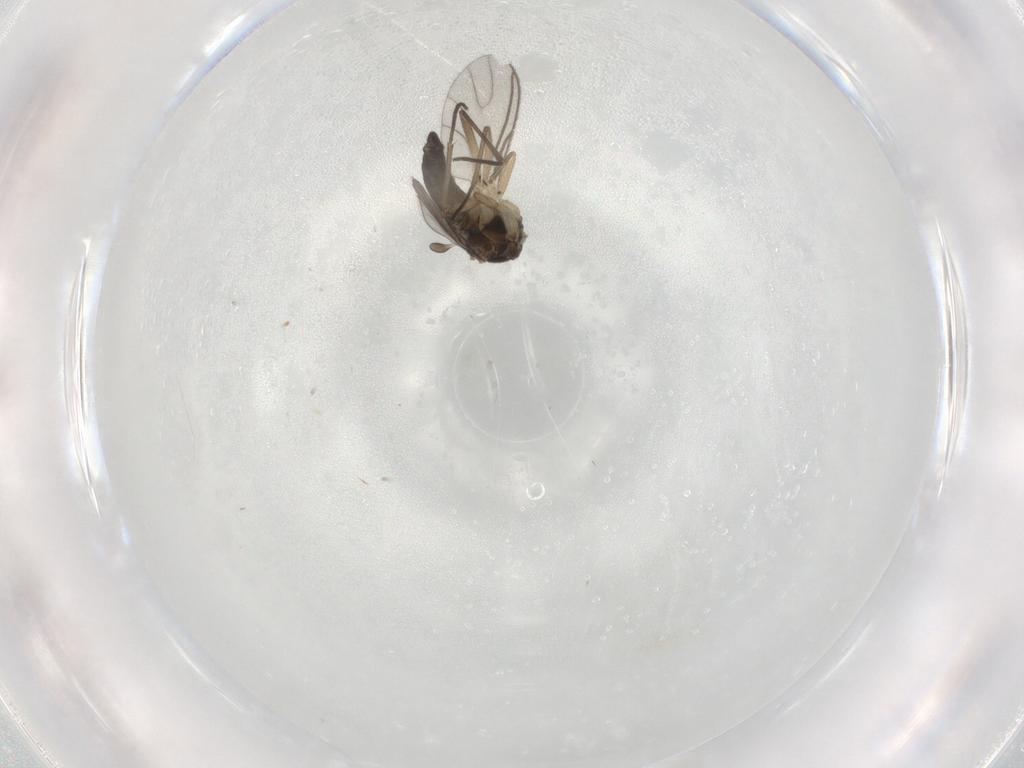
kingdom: Animalia
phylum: Arthropoda
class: Insecta
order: Diptera
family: Sciaridae
